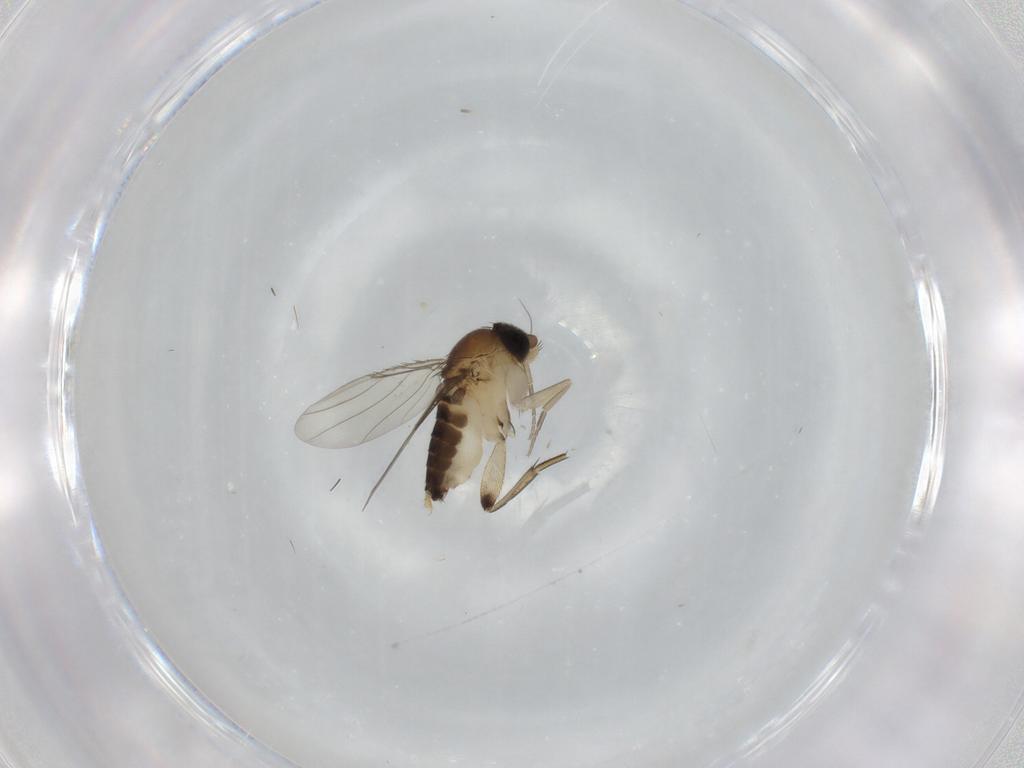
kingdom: Animalia
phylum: Arthropoda
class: Insecta
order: Diptera
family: Phoridae
